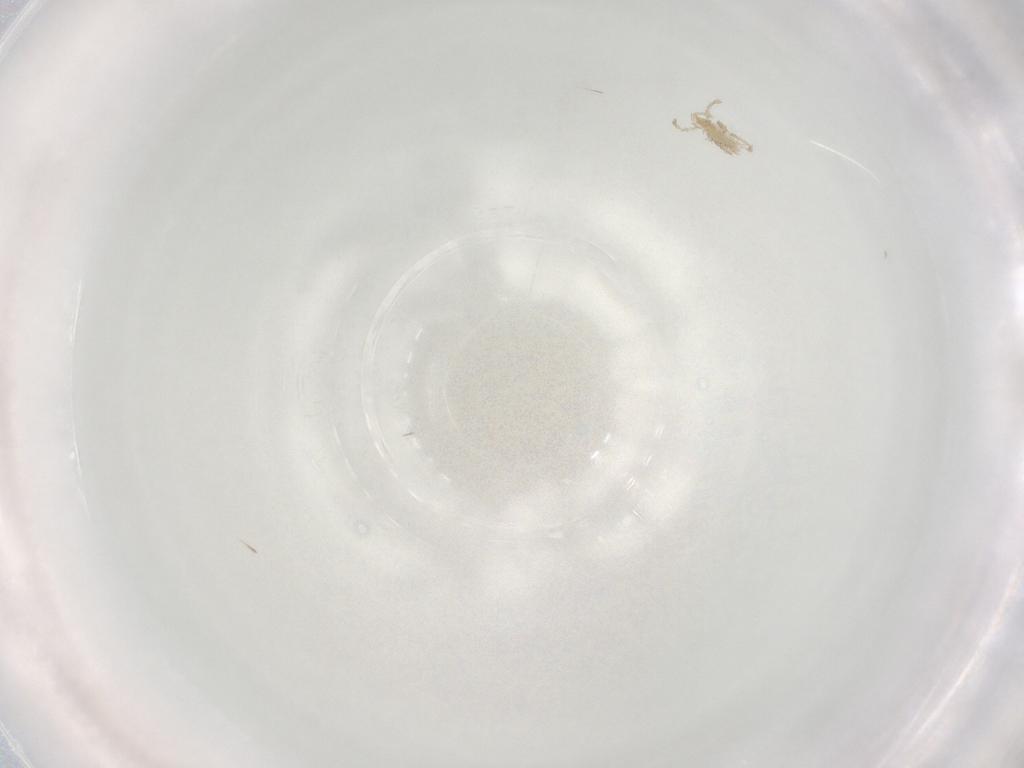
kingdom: Animalia
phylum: Arthropoda
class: Arachnida
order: Trombidiformes
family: Erythraeidae
